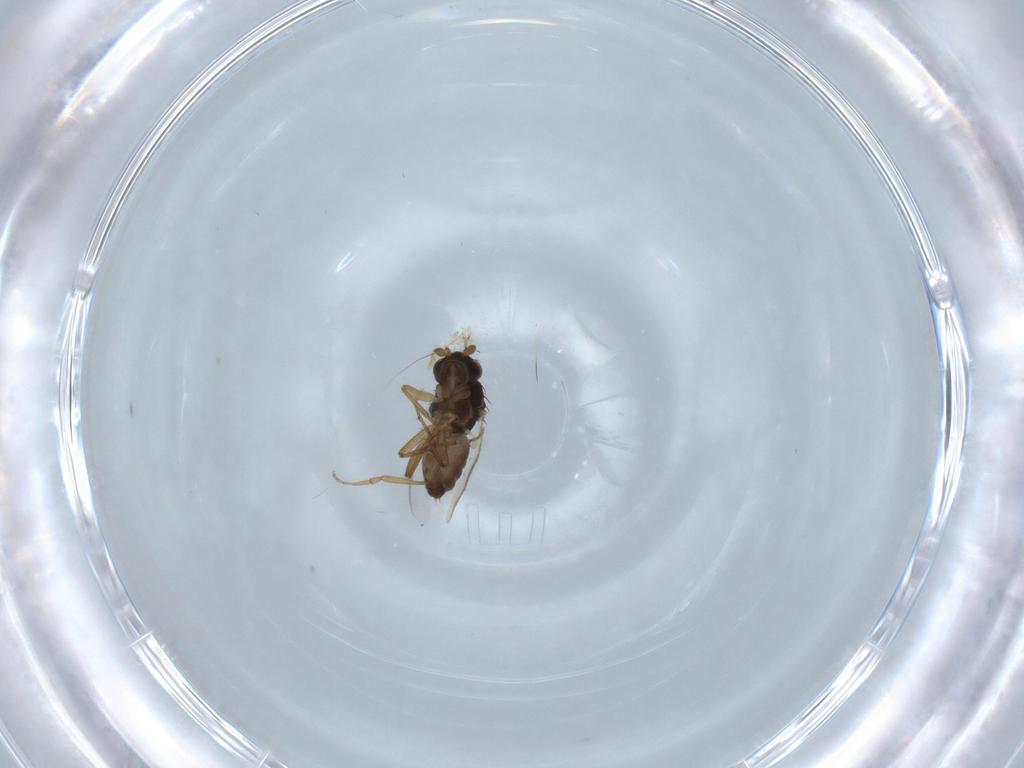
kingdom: Animalia
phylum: Arthropoda
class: Insecta
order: Diptera
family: Sphaeroceridae
